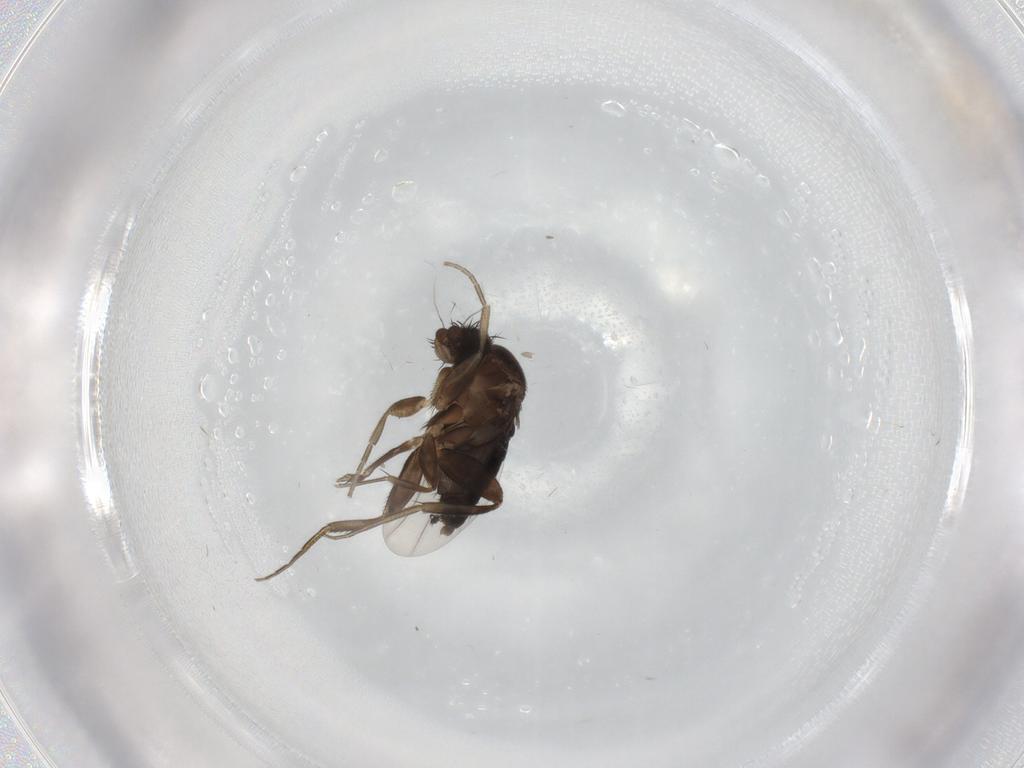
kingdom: Animalia
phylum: Arthropoda
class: Insecta
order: Diptera
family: Phoridae
